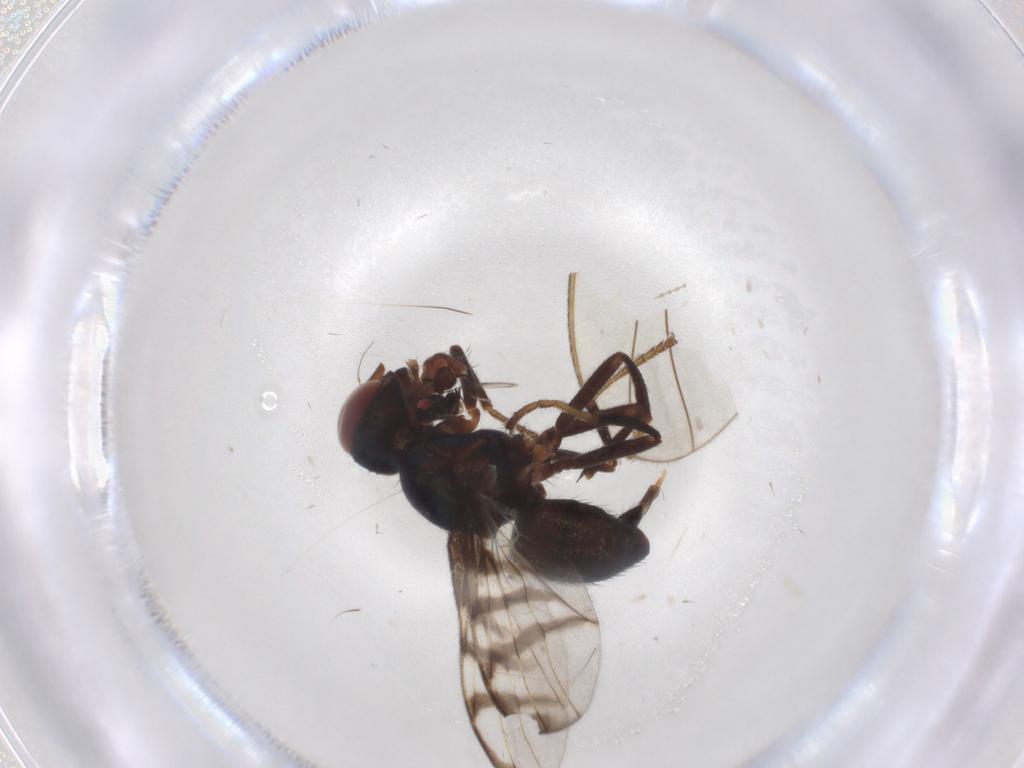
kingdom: Animalia
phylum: Arthropoda
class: Insecta
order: Diptera
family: Platystomatidae
